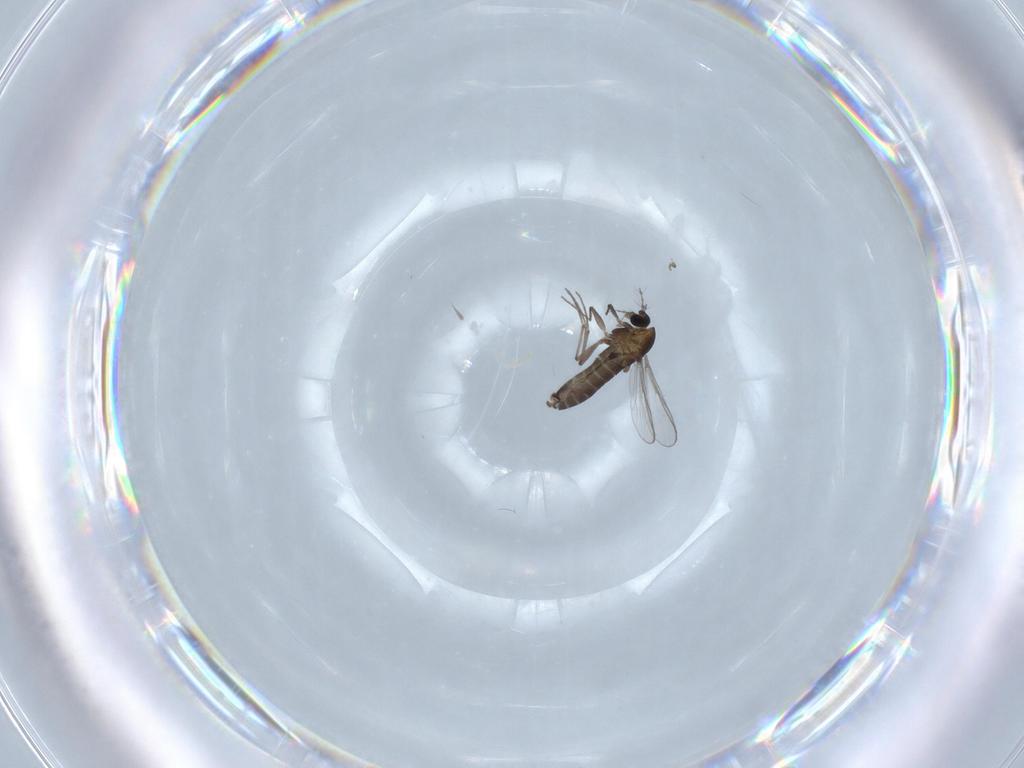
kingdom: Animalia
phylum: Arthropoda
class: Insecta
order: Diptera
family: Chironomidae
